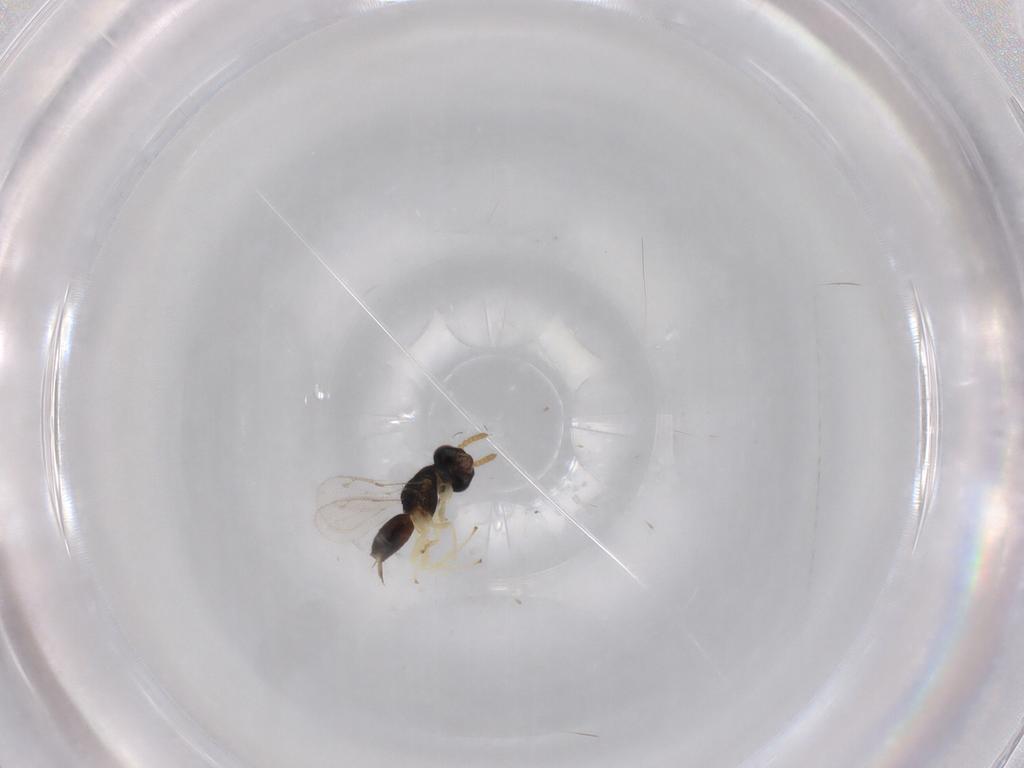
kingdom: Animalia
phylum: Arthropoda
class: Insecta
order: Hymenoptera
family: Pirenidae
